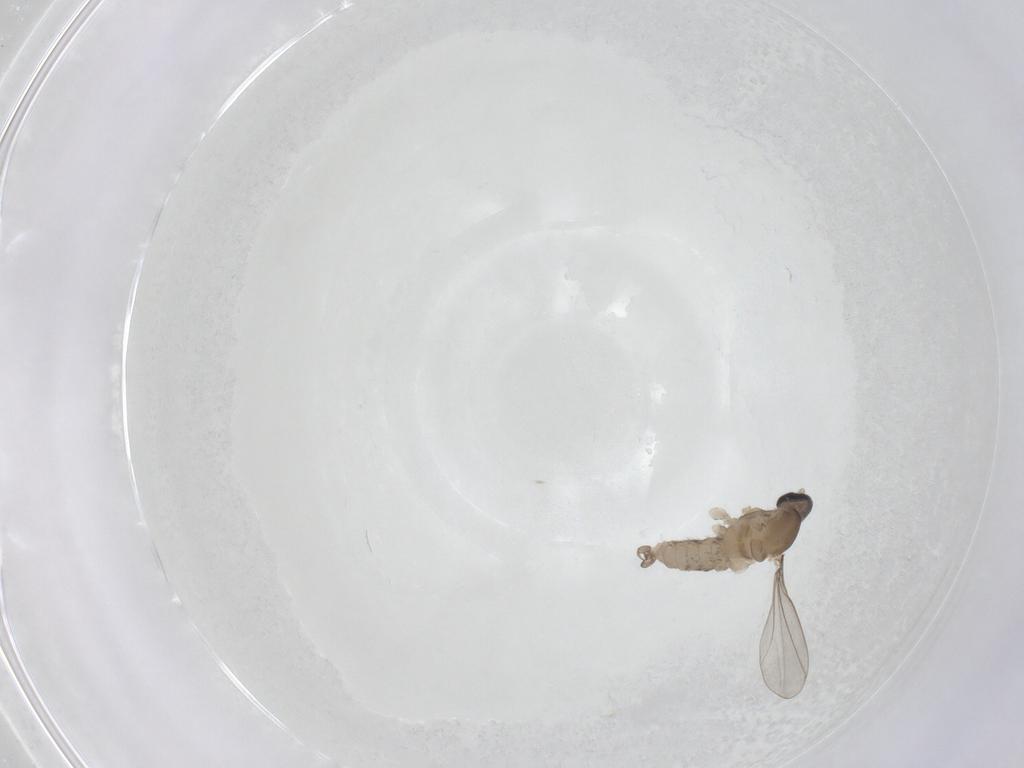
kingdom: Animalia
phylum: Arthropoda
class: Insecta
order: Diptera
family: Cecidomyiidae
